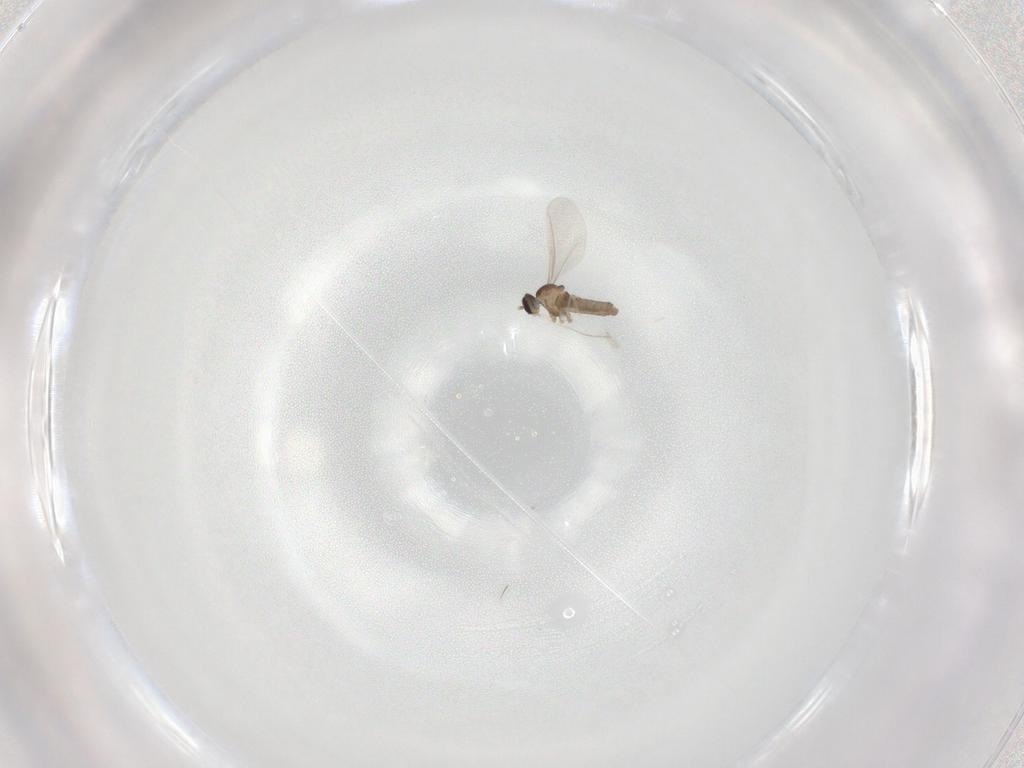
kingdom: Animalia
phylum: Arthropoda
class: Insecta
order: Diptera
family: Cecidomyiidae
